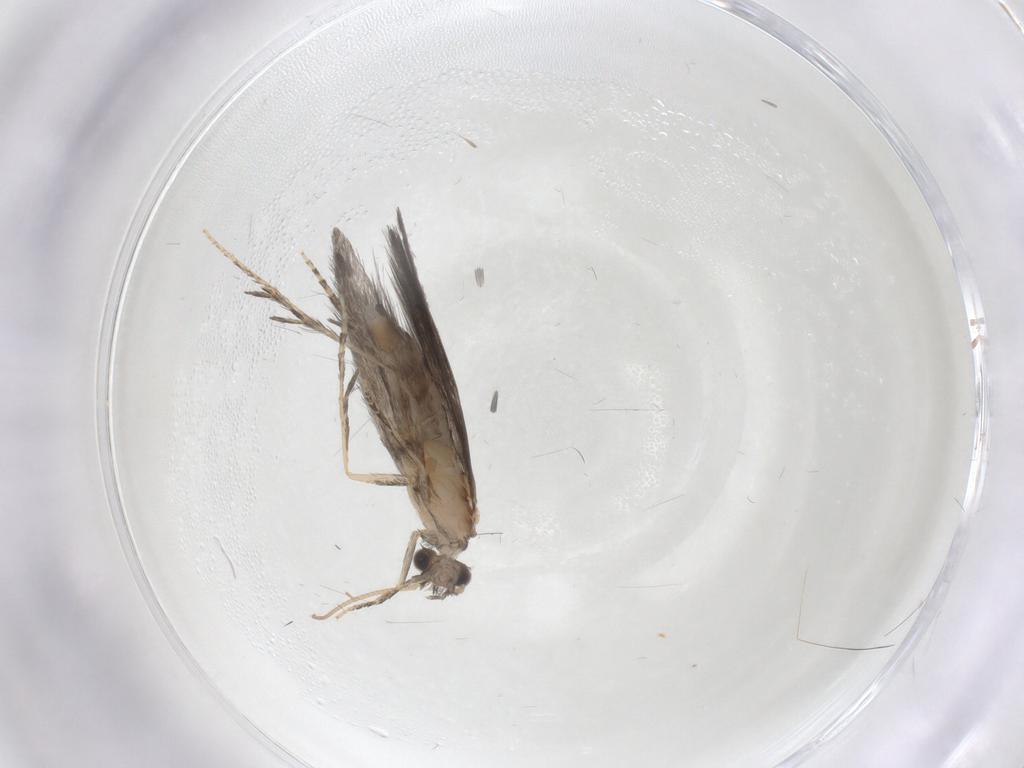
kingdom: Animalia
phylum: Arthropoda
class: Insecta
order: Trichoptera
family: Hydroptilidae
